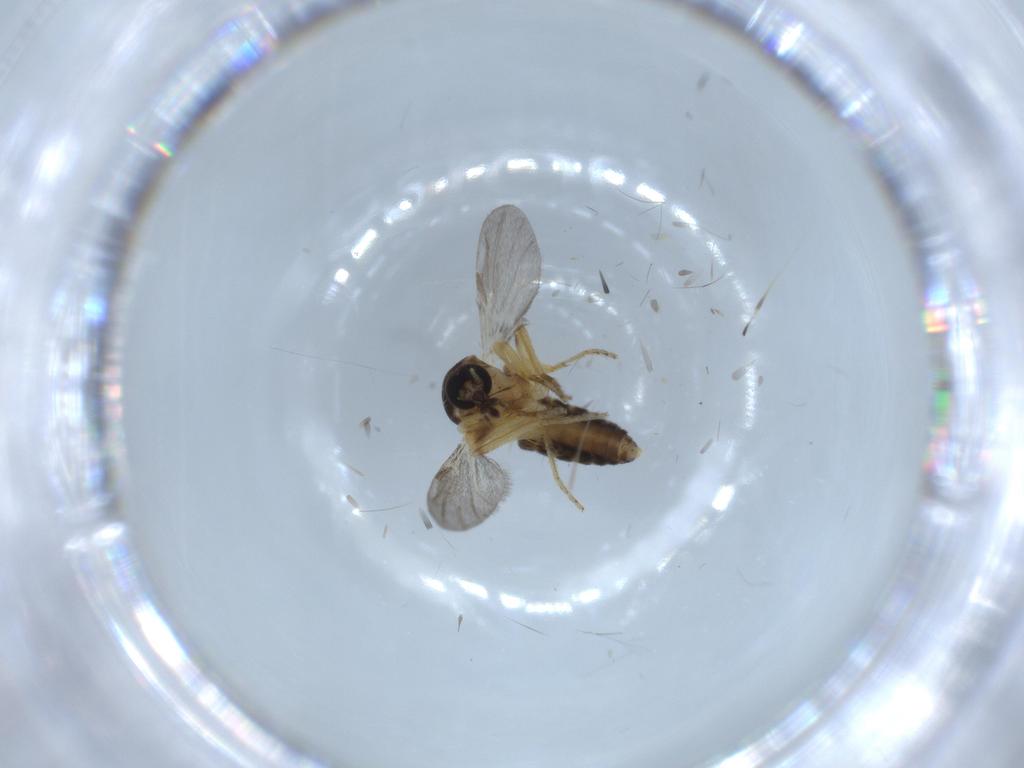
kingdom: Animalia
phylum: Arthropoda
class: Insecta
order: Diptera
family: Ceratopogonidae
